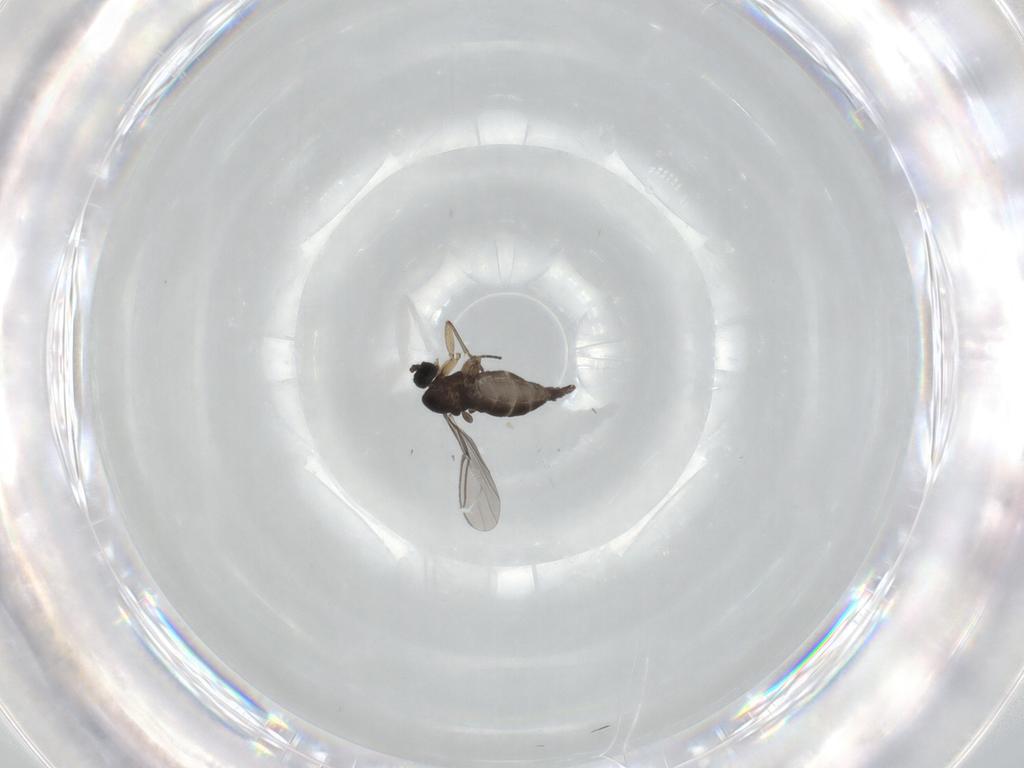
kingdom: Animalia
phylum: Arthropoda
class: Insecta
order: Diptera
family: Sciaridae
